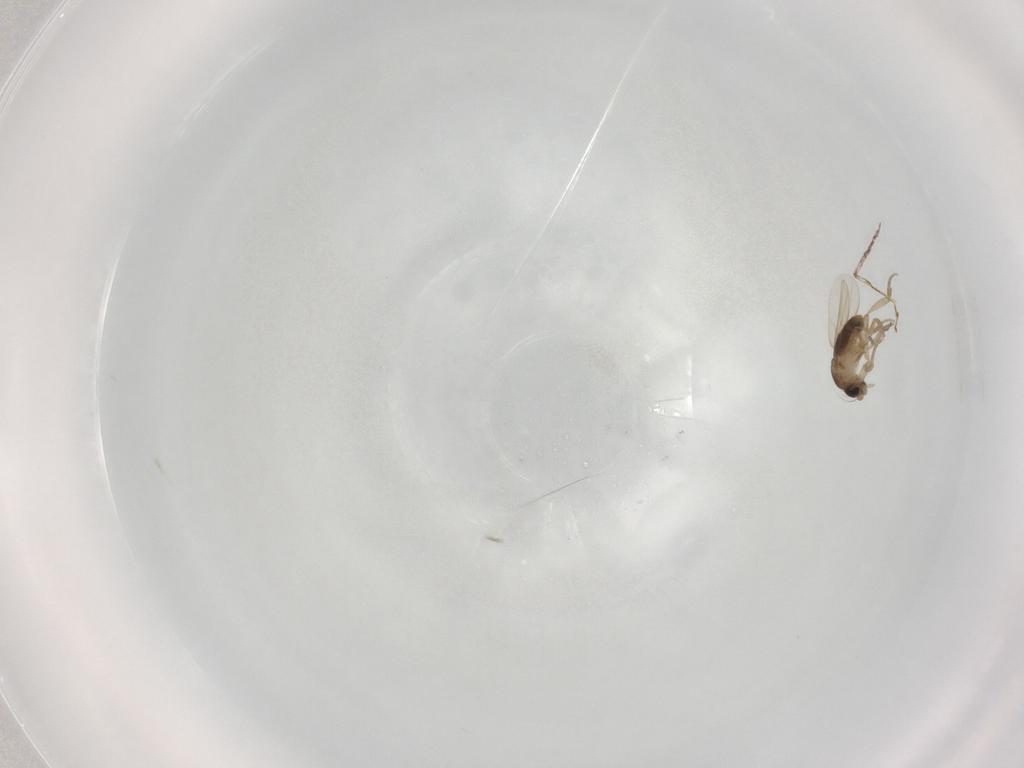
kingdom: Animalia
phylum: Arthropoda
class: Insecta
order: Diptera
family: Phoridae
